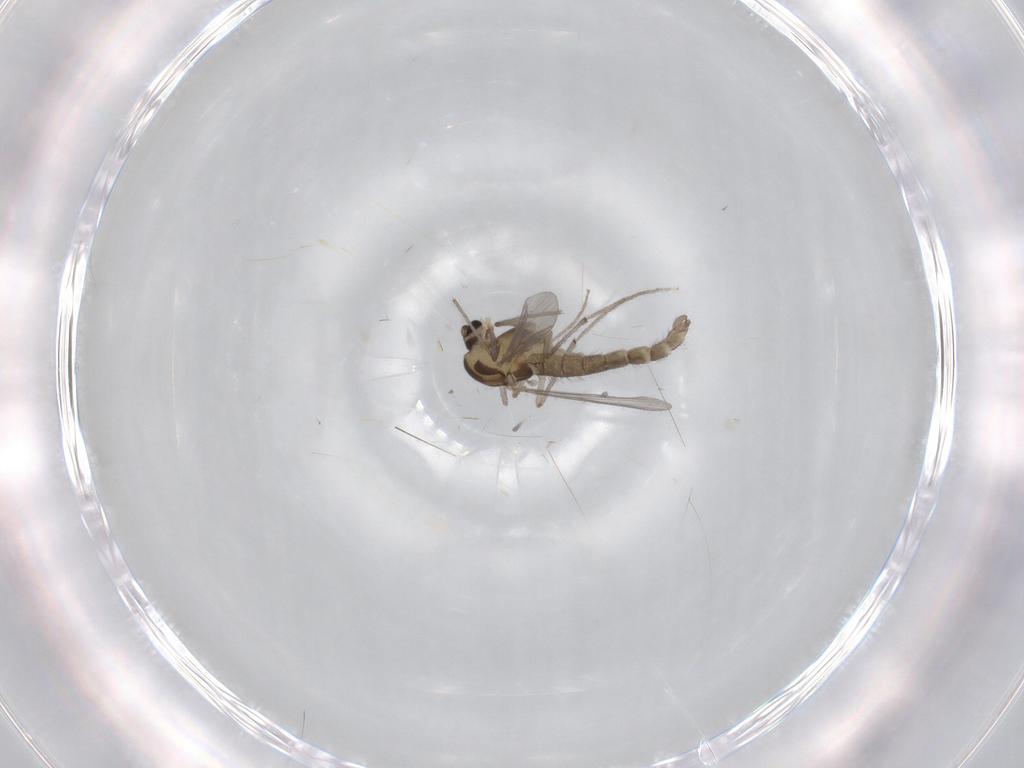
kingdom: Animalia
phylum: Arthropoda
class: Insecta
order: Diptera
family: Chironomidae
